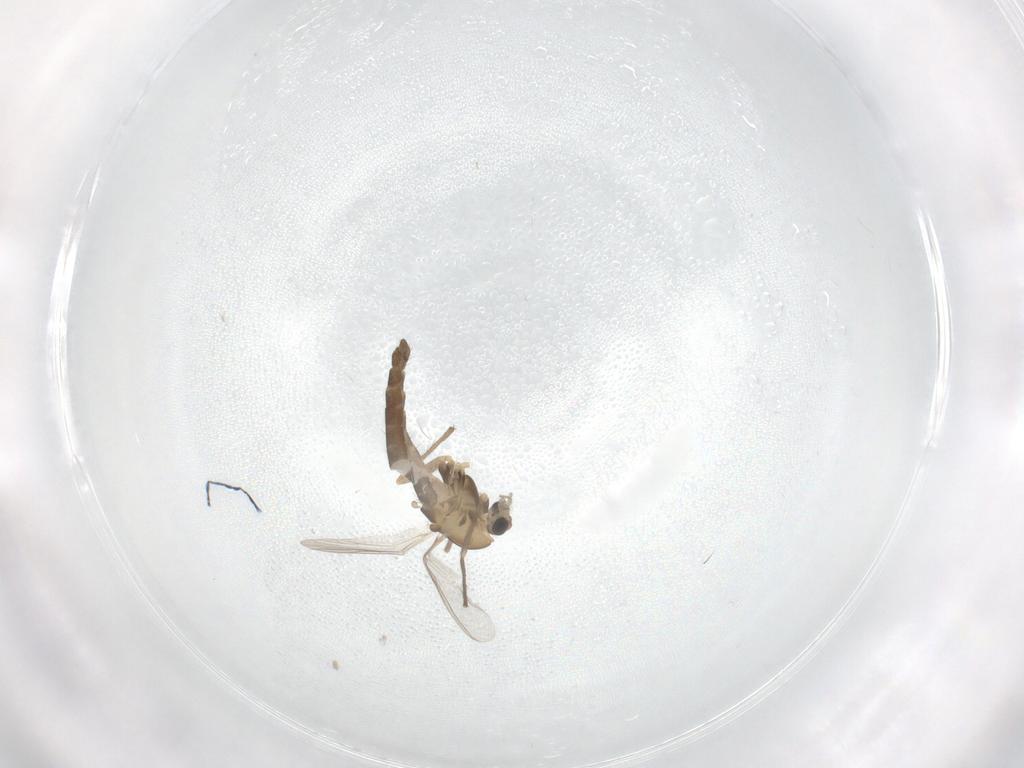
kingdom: Animalia
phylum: Arthropoda
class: Insecta
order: Diptera
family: Chironomidae
